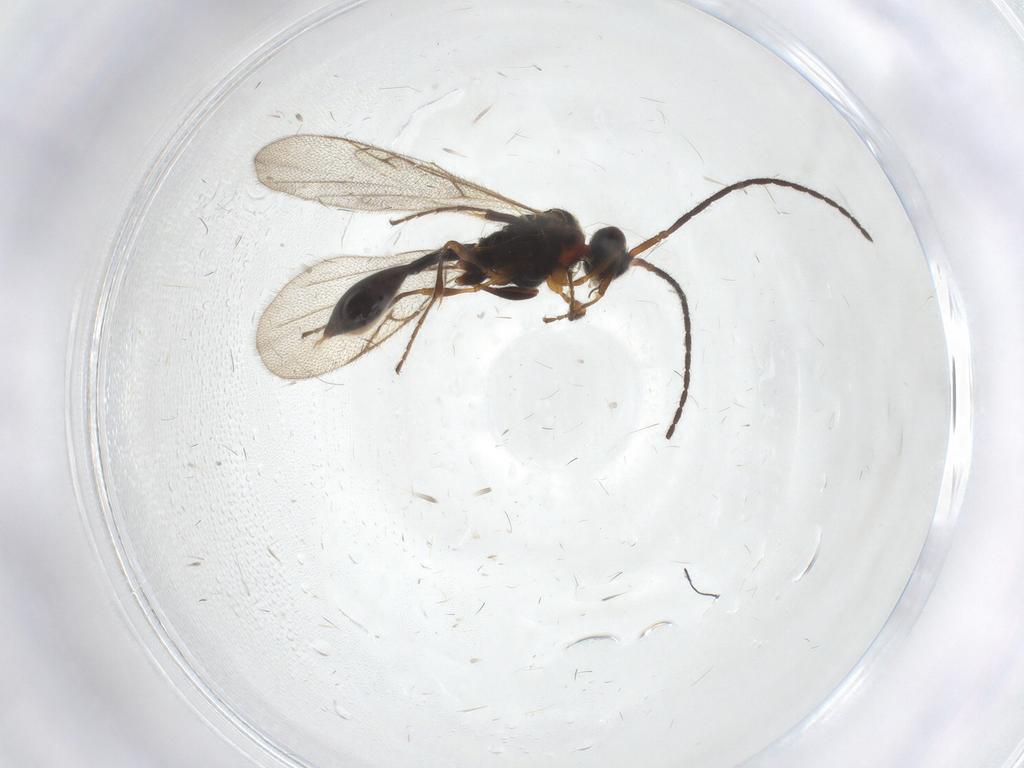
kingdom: Animalia
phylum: Arthropoda
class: Insecta
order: Hymenoptera
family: Diapriidae
